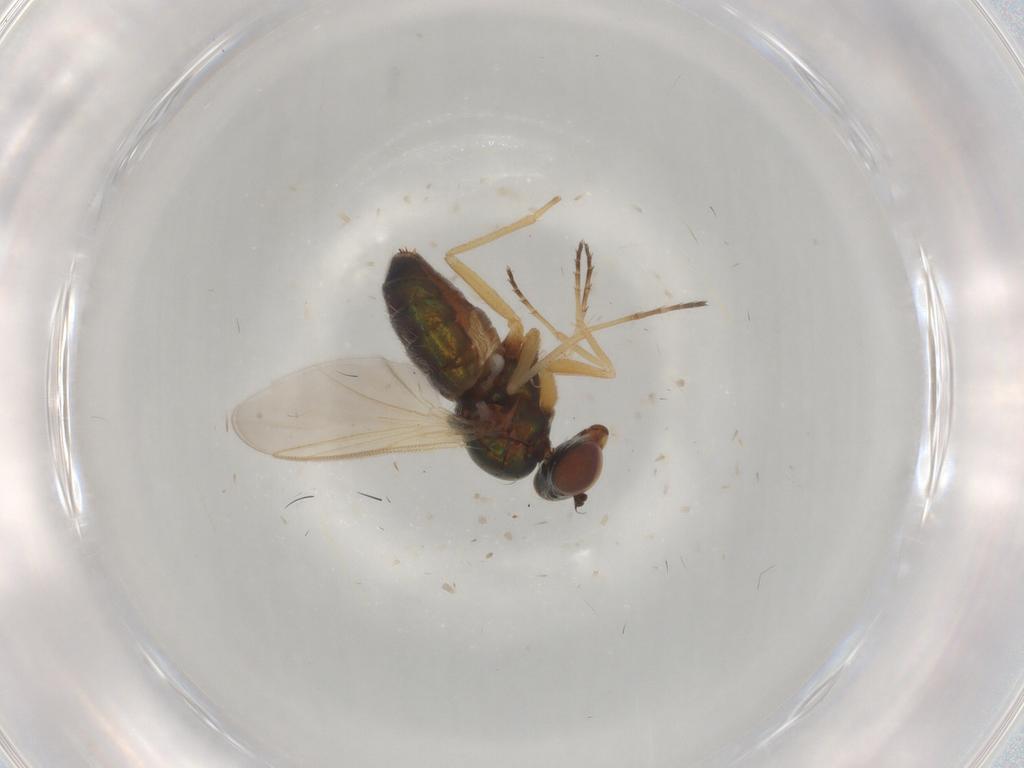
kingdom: Animalia
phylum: Arthropoda
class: Insecta
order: Diptera
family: Dolichopodidae
